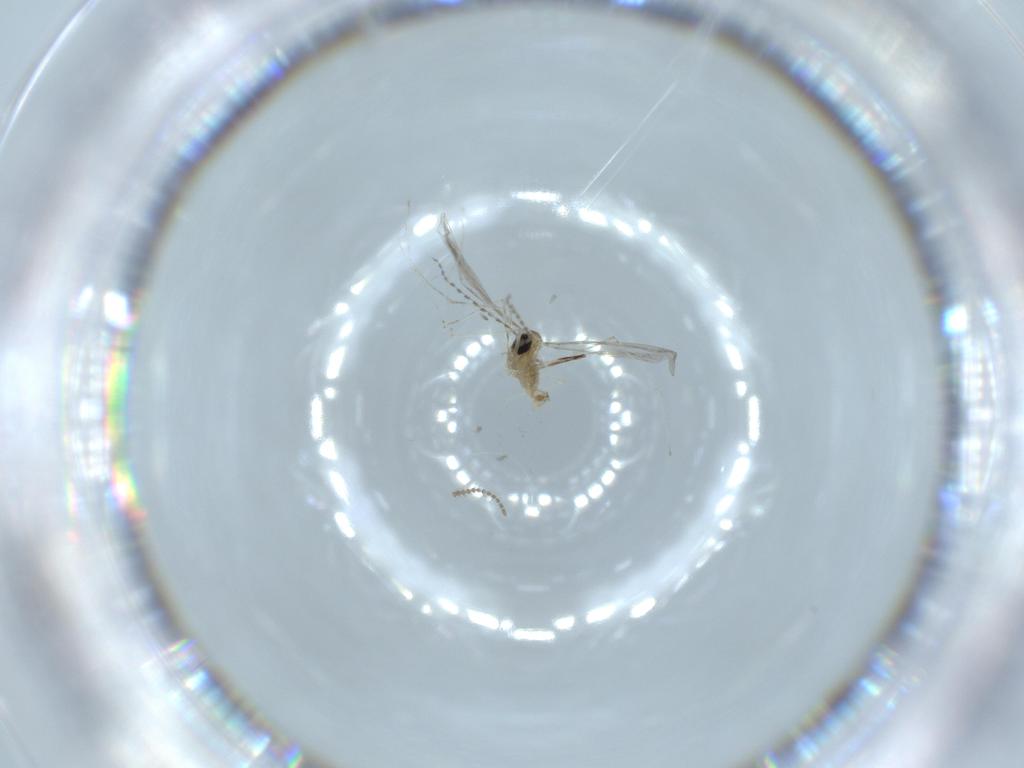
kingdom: Animalia
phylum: Arthropoda
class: Insecta
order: Diptera
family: Cecidomyiidae
